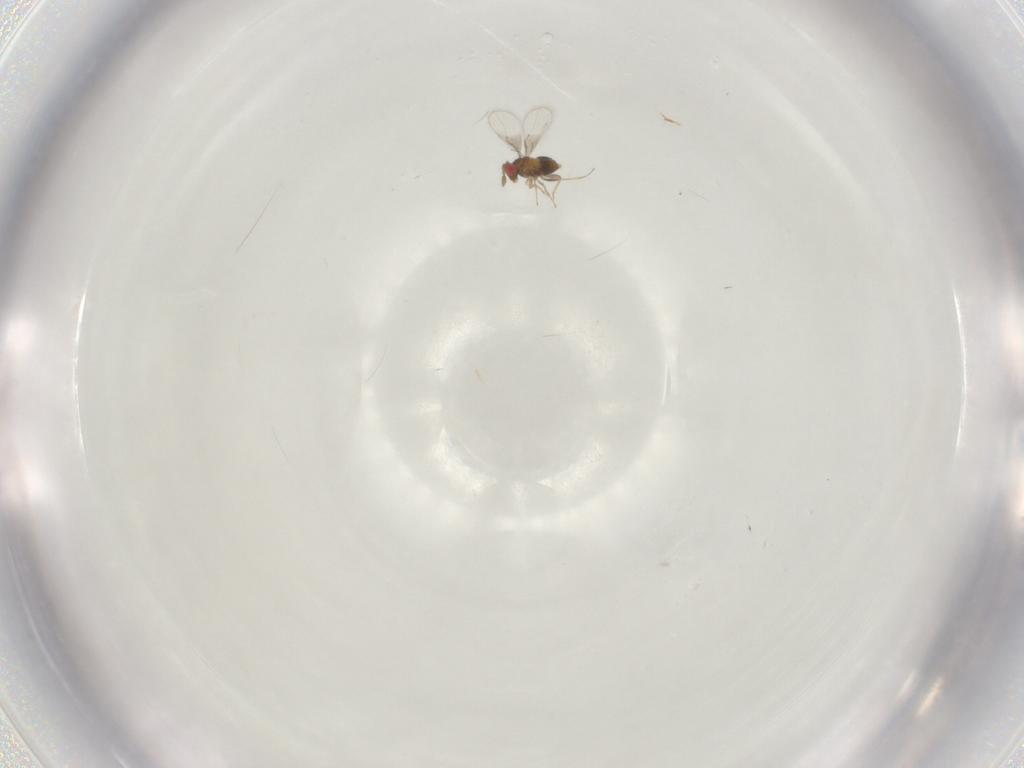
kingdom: Animalia
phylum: Arthropoda
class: Insecta
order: Hymenoptera
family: Trichogrammatidae
